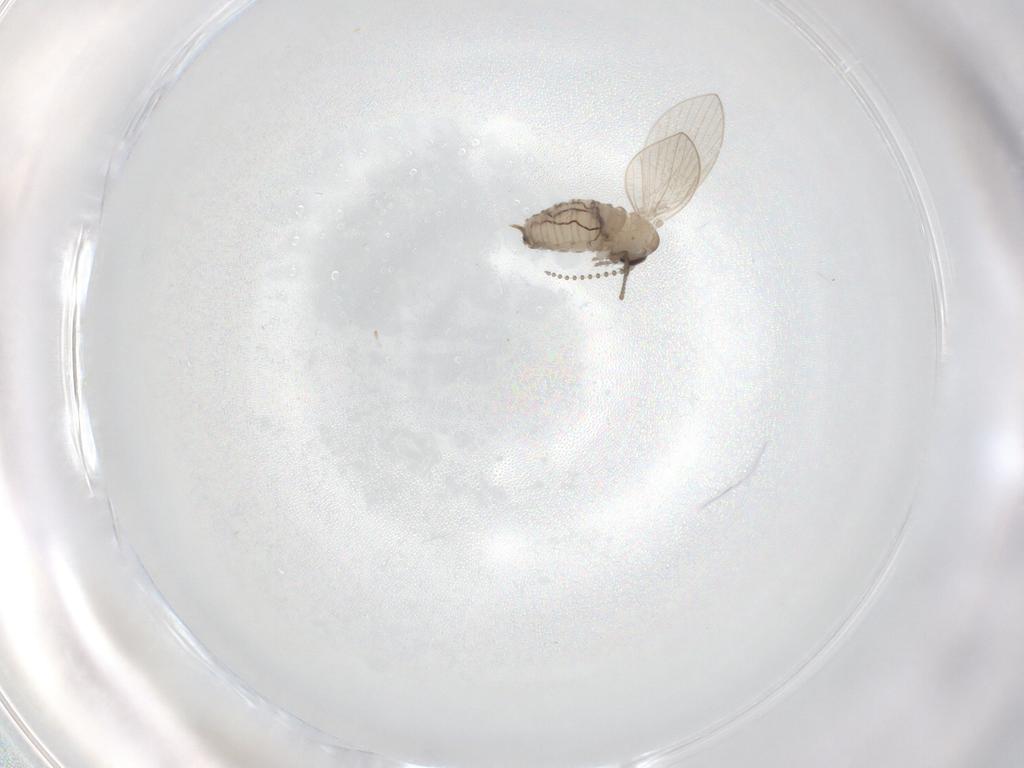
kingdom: Animalia
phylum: Arthropoda
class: Insecta
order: Diptera
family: Psychodidae
